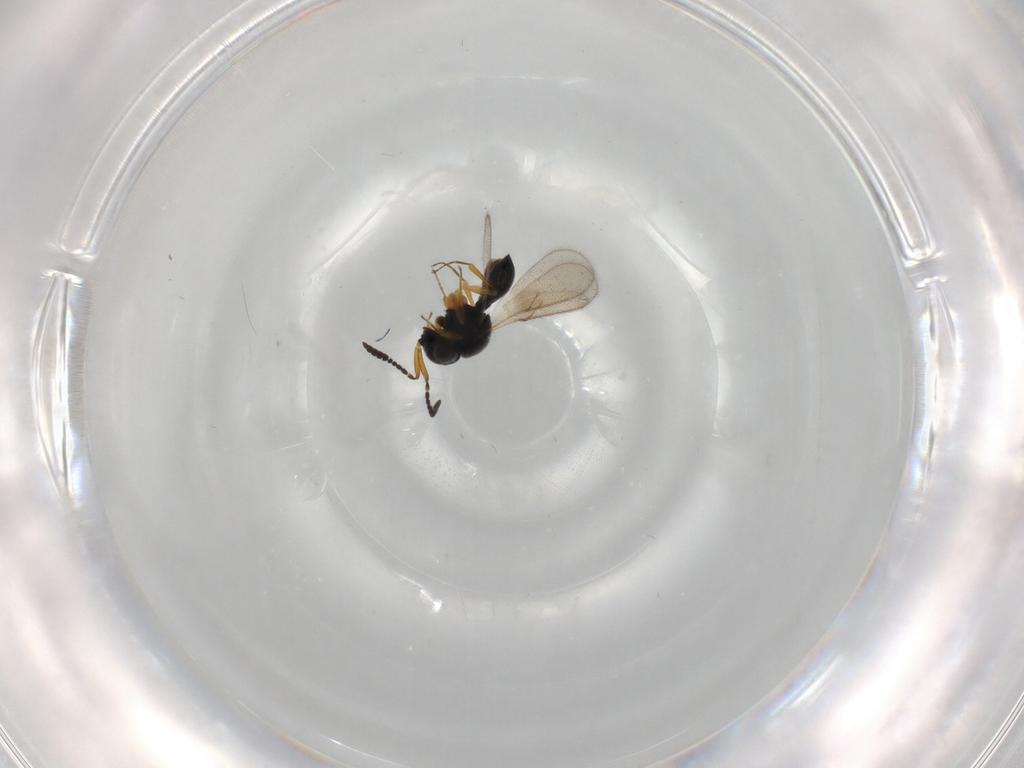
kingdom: Animalia
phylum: Arthropoda
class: Insecta
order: Hymenoptera
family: Scelionidae
